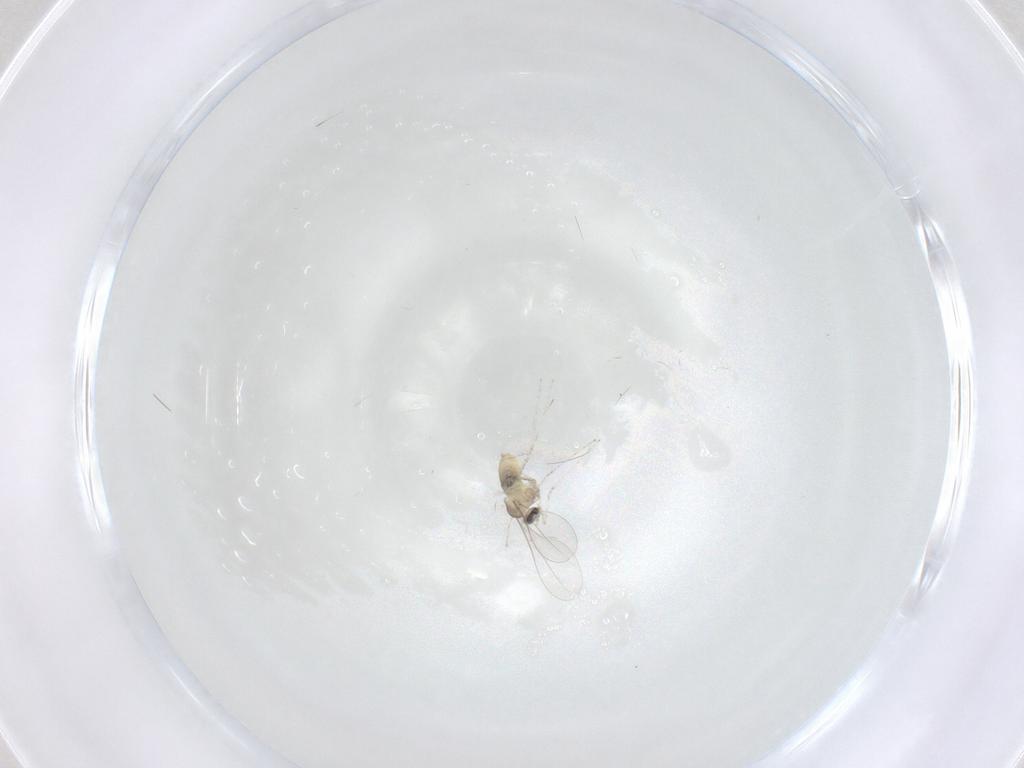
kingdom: Animalia
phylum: Arthropoda
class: Insecta
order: Diptera
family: Cecidomyiidae
